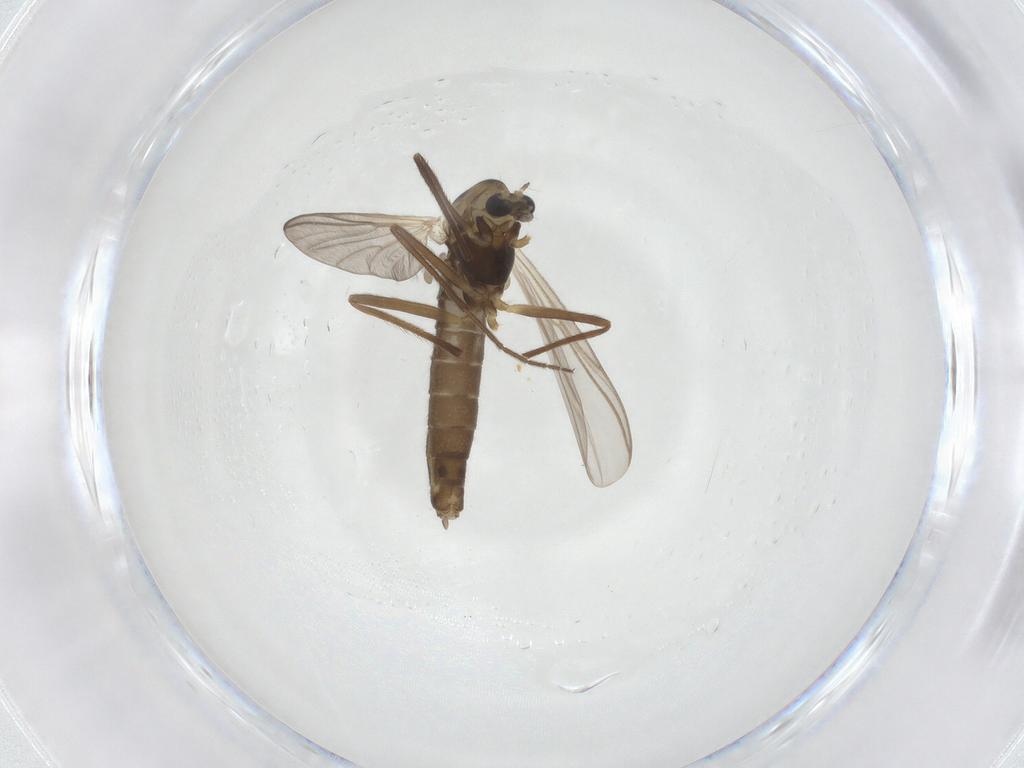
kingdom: Animalia
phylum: Arthropoda
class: Insecta
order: Diptera
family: Chironomidae
